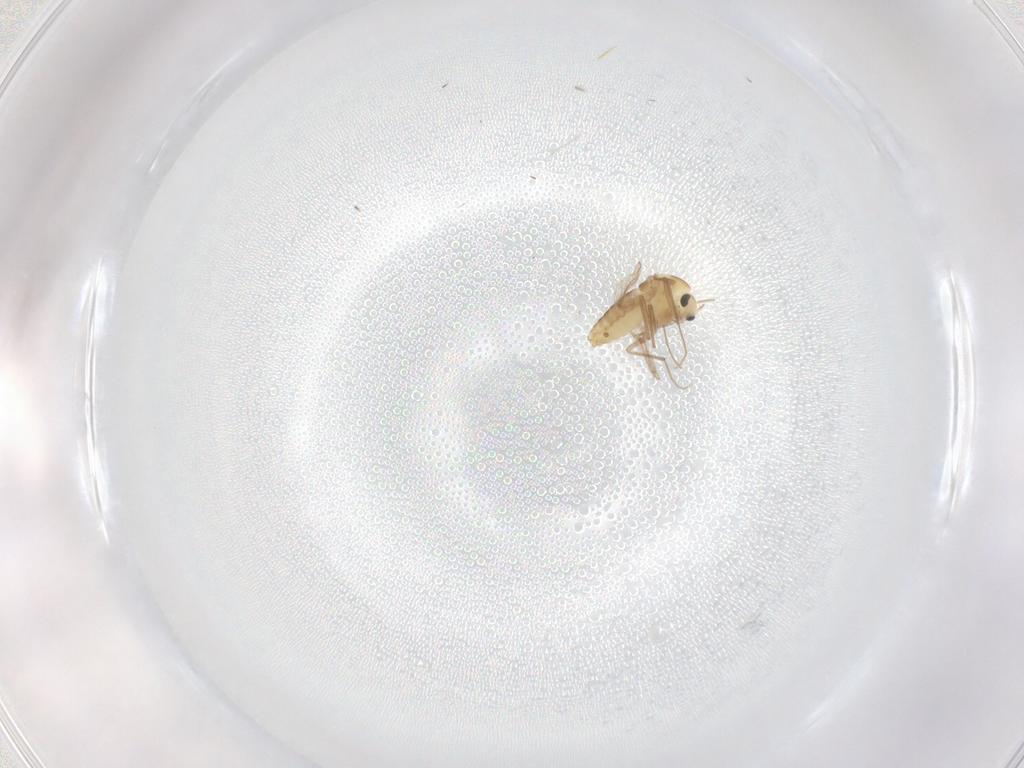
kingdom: Animalia
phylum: Arthropoda
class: Insecta
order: Diptera
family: Chironomidae
